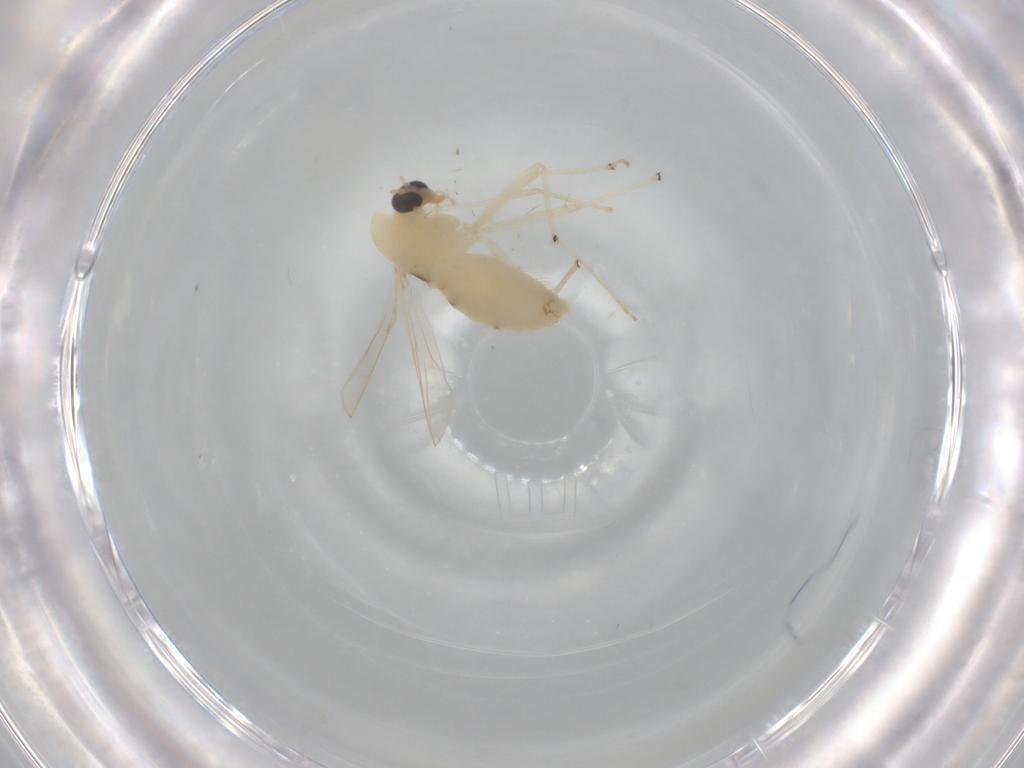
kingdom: Animalia
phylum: Arthropoda
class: Insecta
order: Diptera
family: Chironomidae
